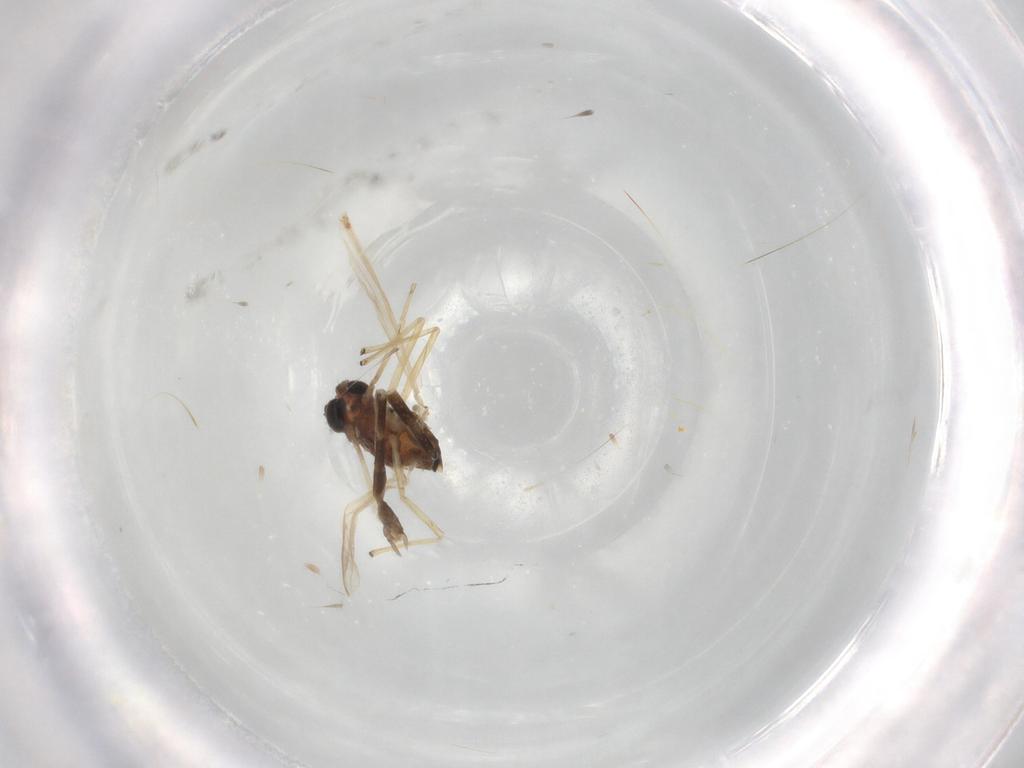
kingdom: Animalia
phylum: Arthropoda
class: Insecta
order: Diptera
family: Chironomidae
